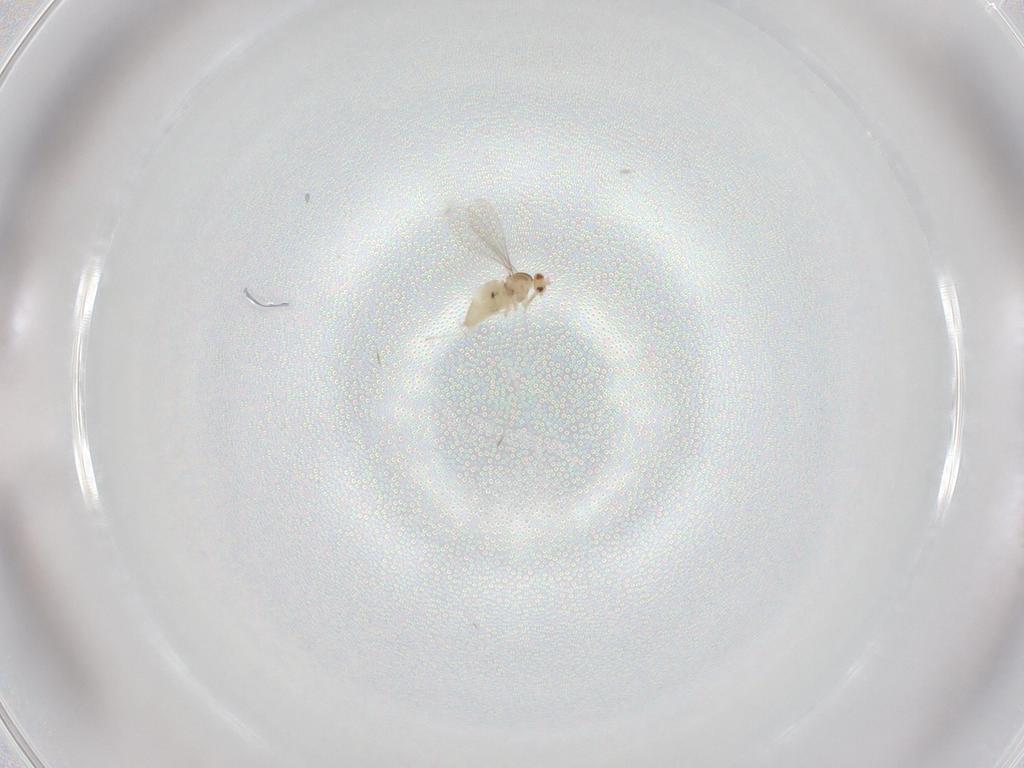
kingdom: Animalia
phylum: Arthropoda
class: Insecta
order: Diptera
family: Cecidomyiidae
